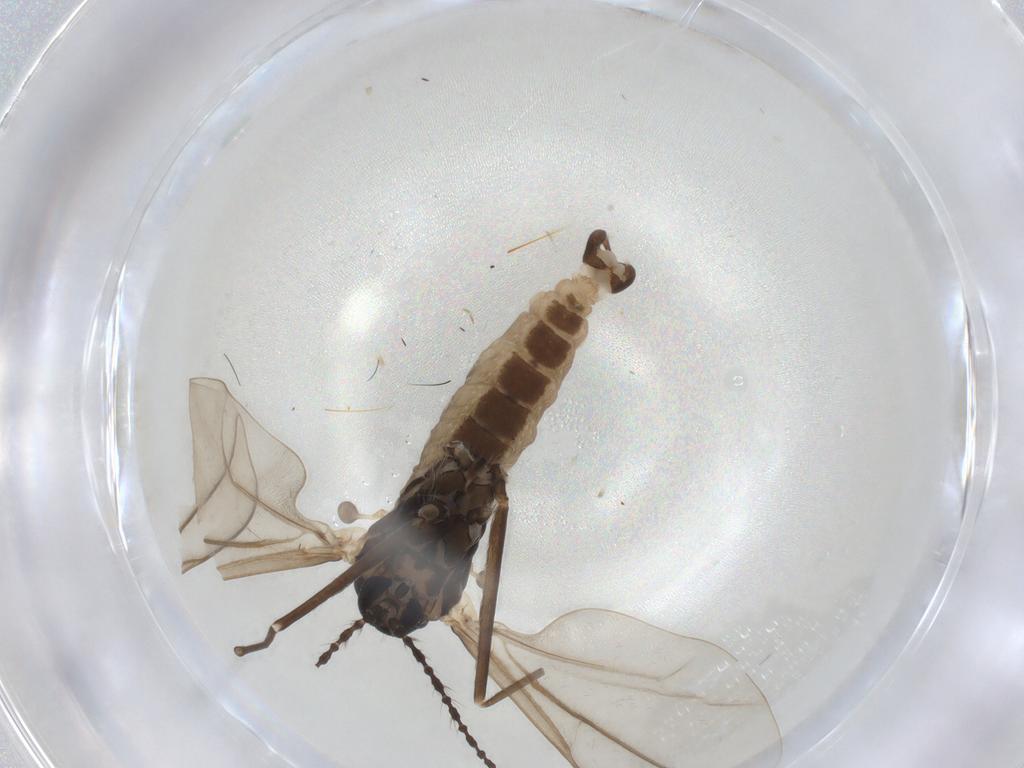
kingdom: Animalia
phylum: Arthropoda
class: Insecta
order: Diptera
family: Cecidomyiidae
